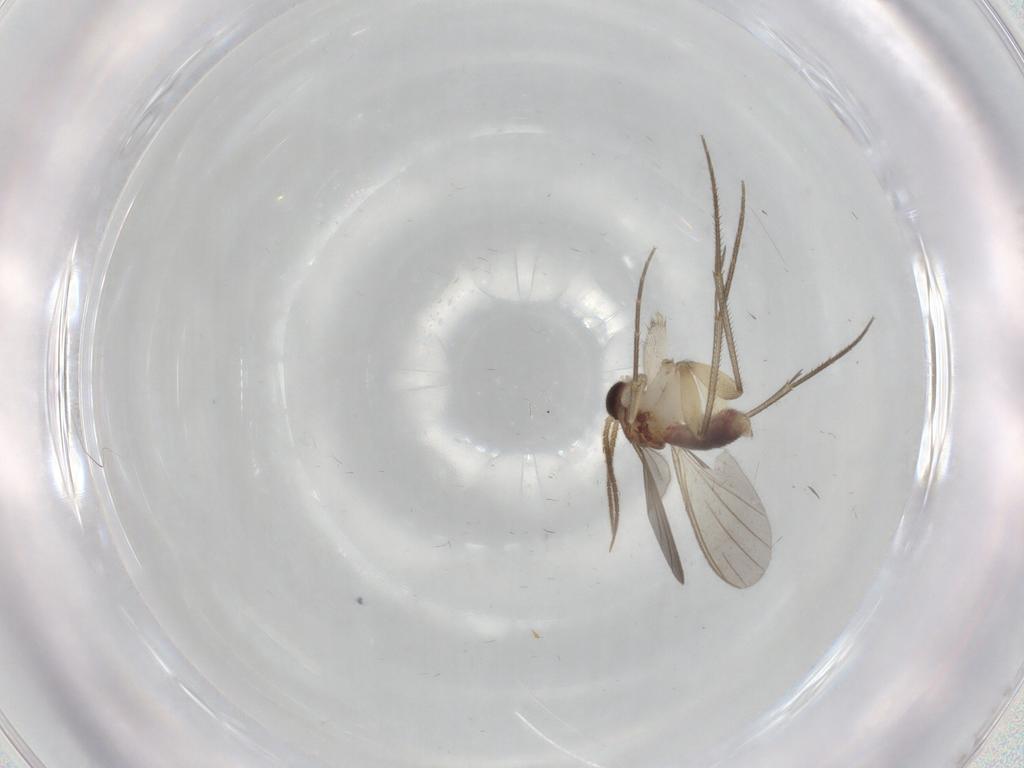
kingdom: Animalia
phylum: Arthropoda
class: Insecta
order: Diptera
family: Mycetophilidae
